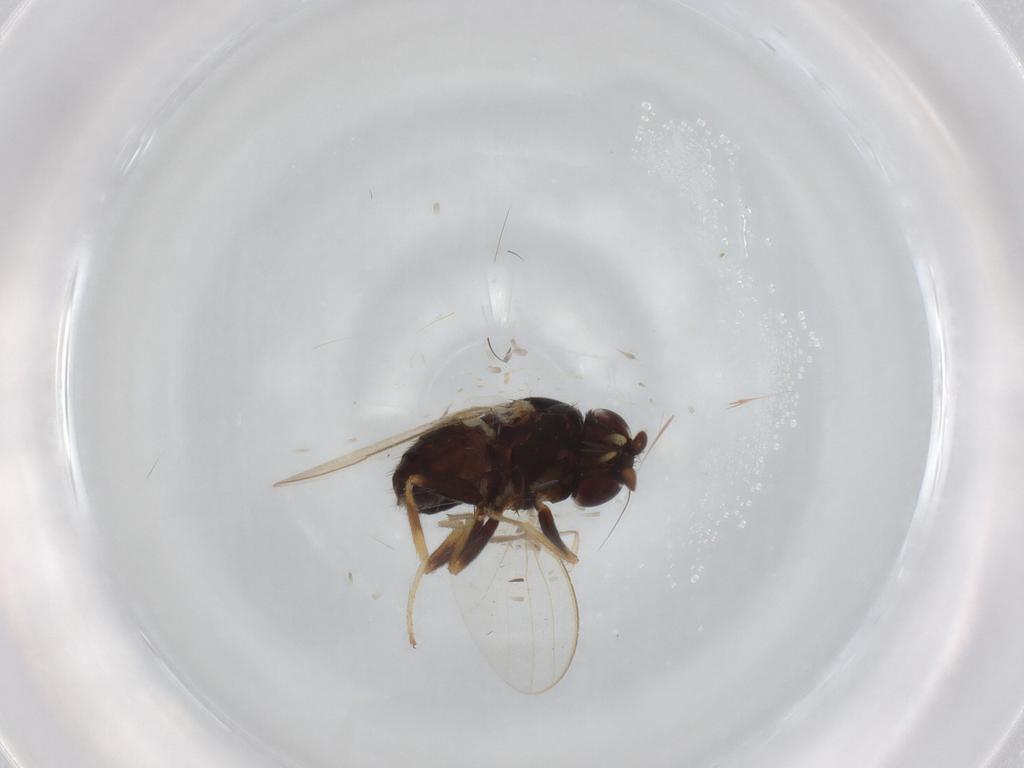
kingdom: Animalia
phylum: Arthropoda
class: Insecta
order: Diptera
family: Milichiidae
